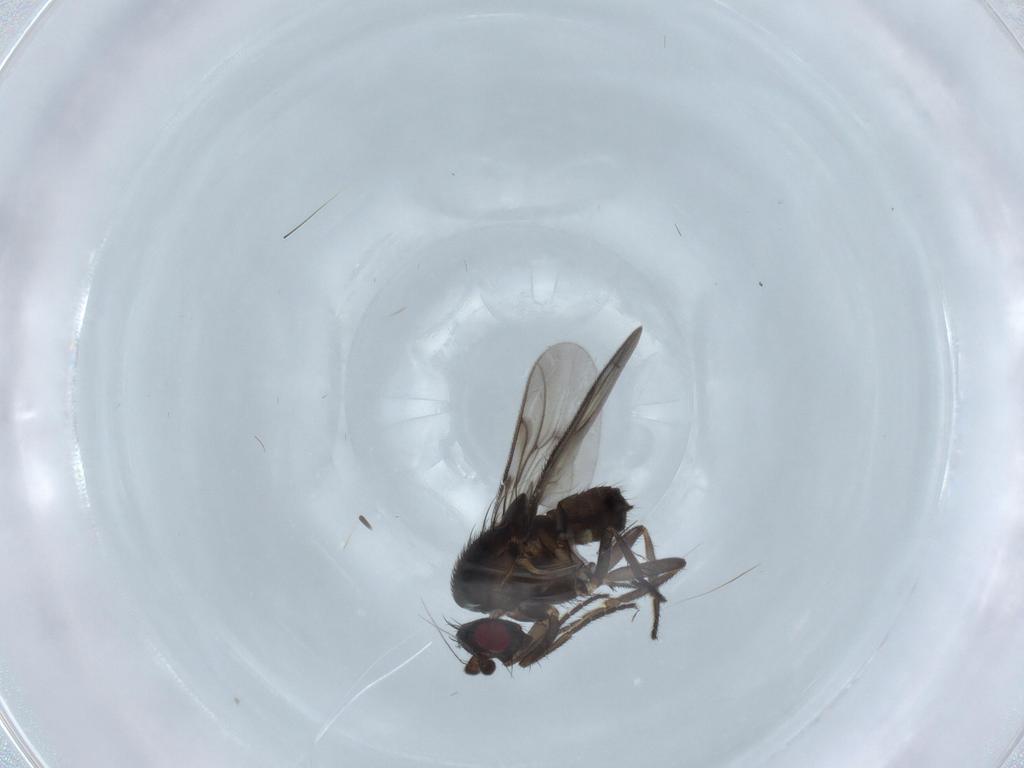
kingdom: Animalia
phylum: Arthropoda
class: Insecta
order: Diptera
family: Sphaeroceridae
